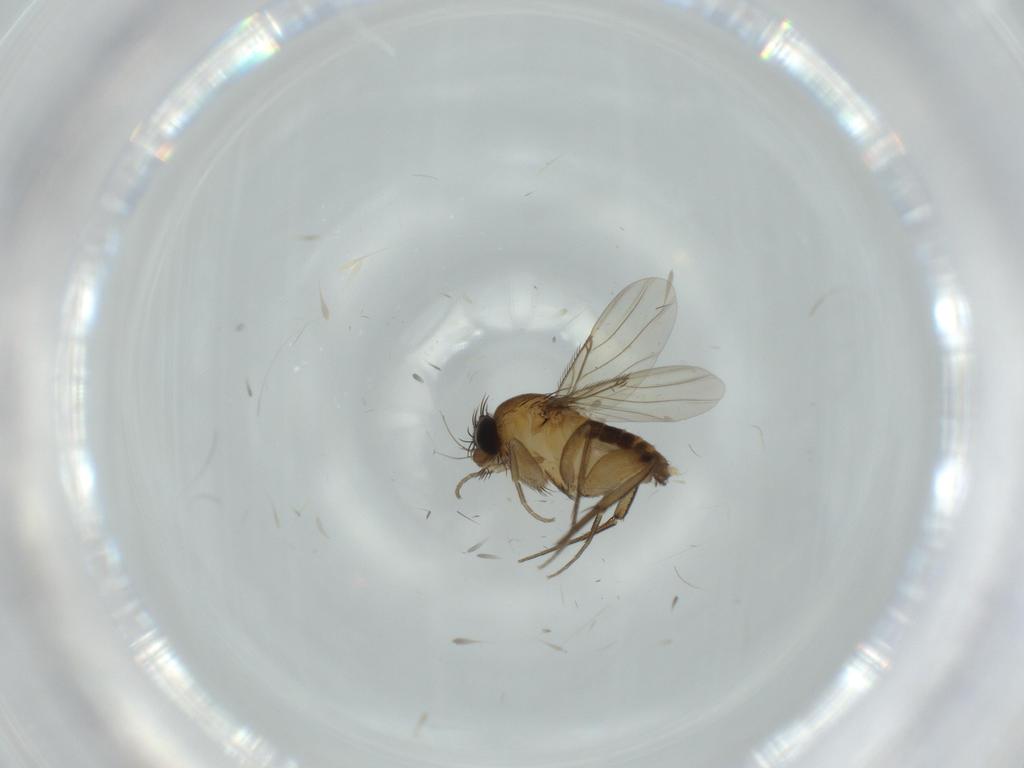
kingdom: Animalia
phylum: Arthropoda
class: Insecta
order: Diptera
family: Phoridae
